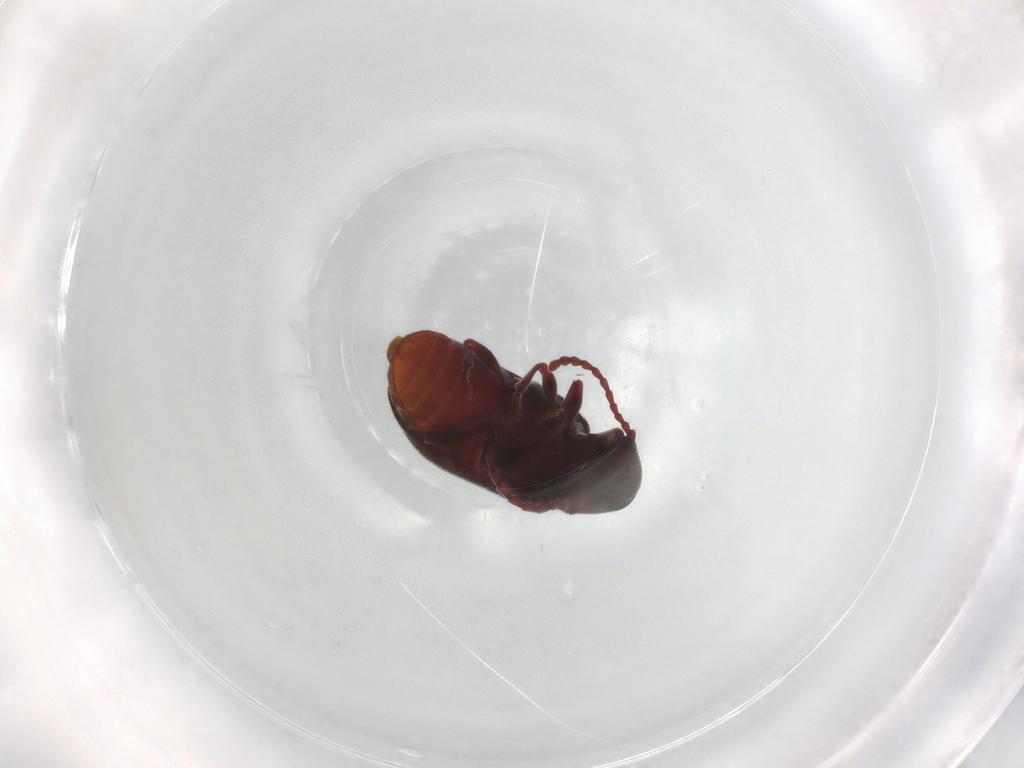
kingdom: Animalia
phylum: Arthropoda
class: Insecta
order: Coleoptera
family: Ptinidae
